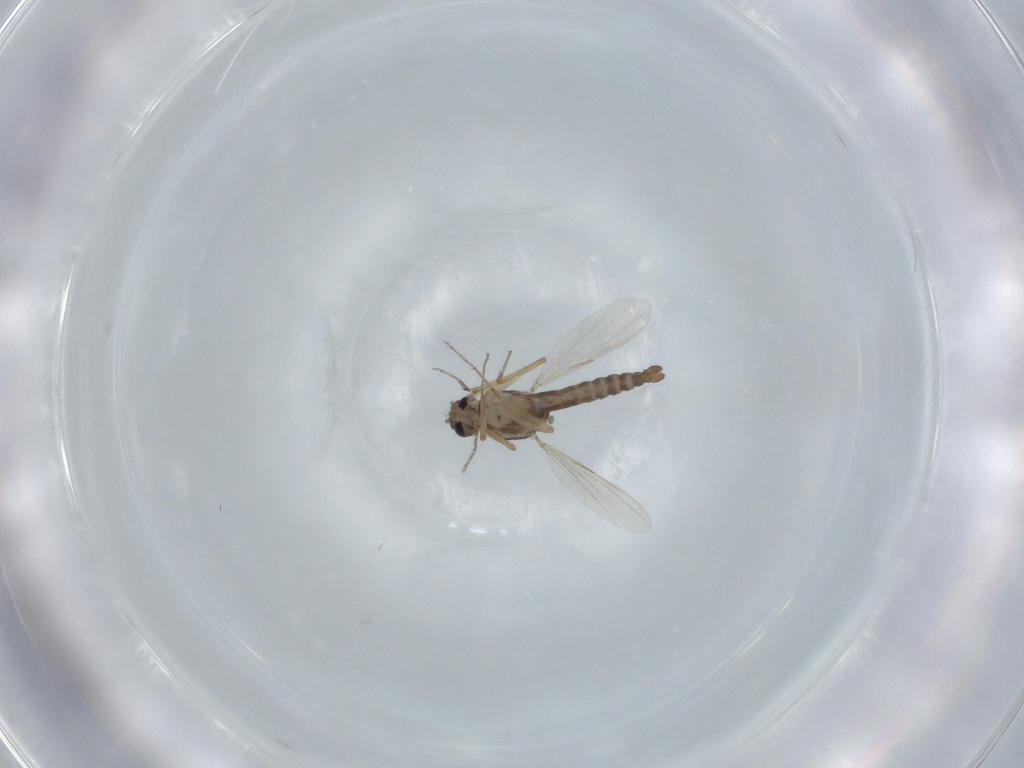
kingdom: Animalia
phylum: Arthropoda
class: Insecta
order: Diptera
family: Ceratopogonidae
